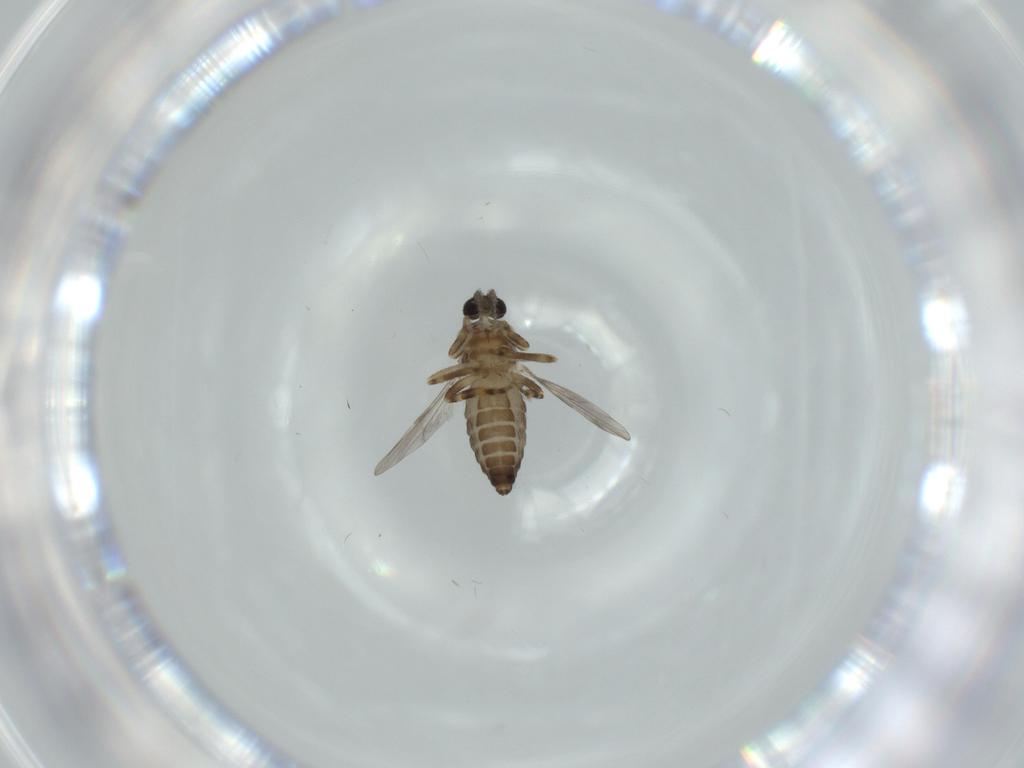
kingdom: Animalia
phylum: Arthropoda
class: Insecta
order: Diptera
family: Ceratopogonidae
